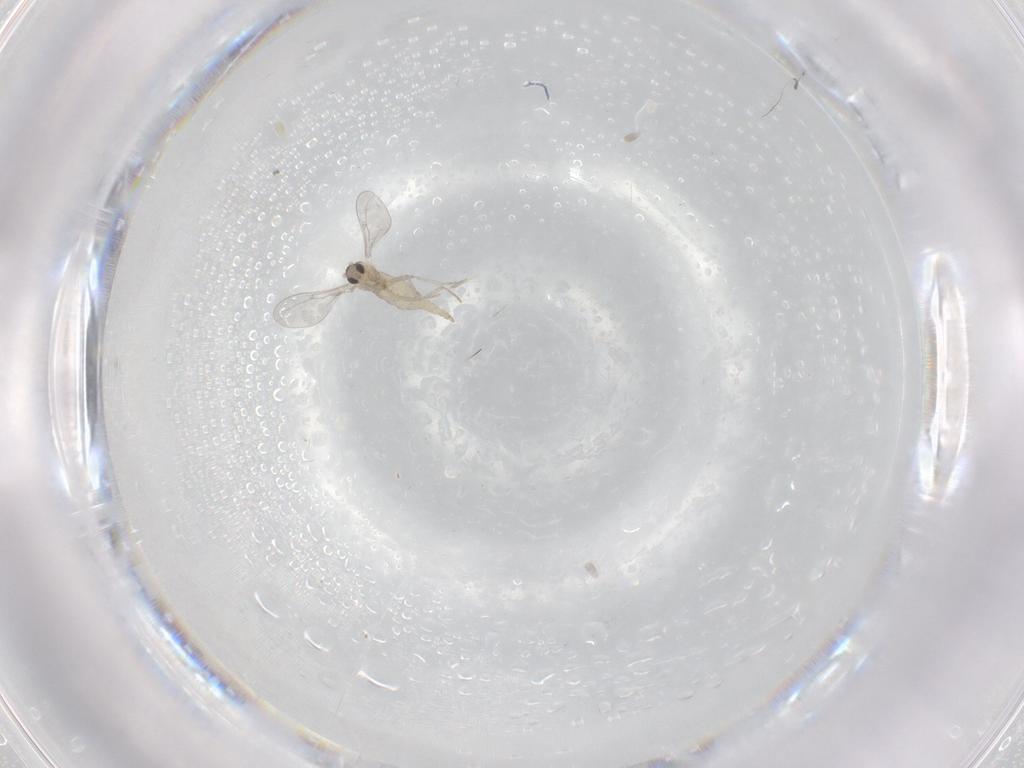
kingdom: Animalia
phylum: Arthropoda
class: Insecta
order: Diptera
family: Cecidomyiidae
